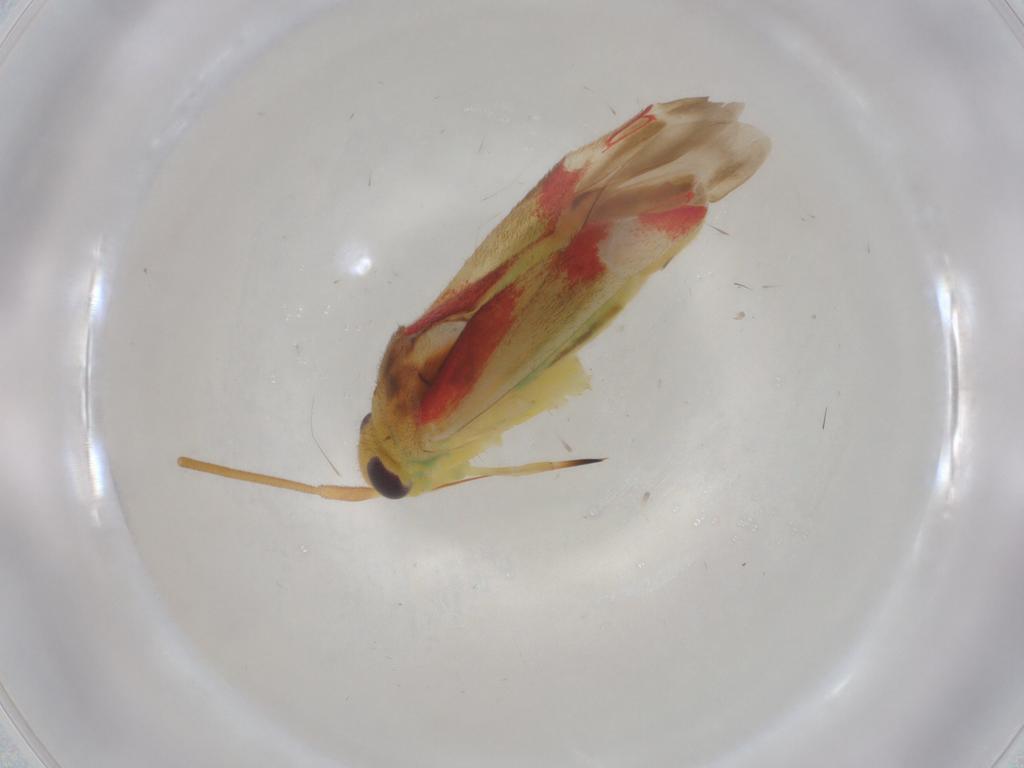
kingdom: Animalia
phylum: Arthropoda
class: Insecta
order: Hemiptera
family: Miridae
